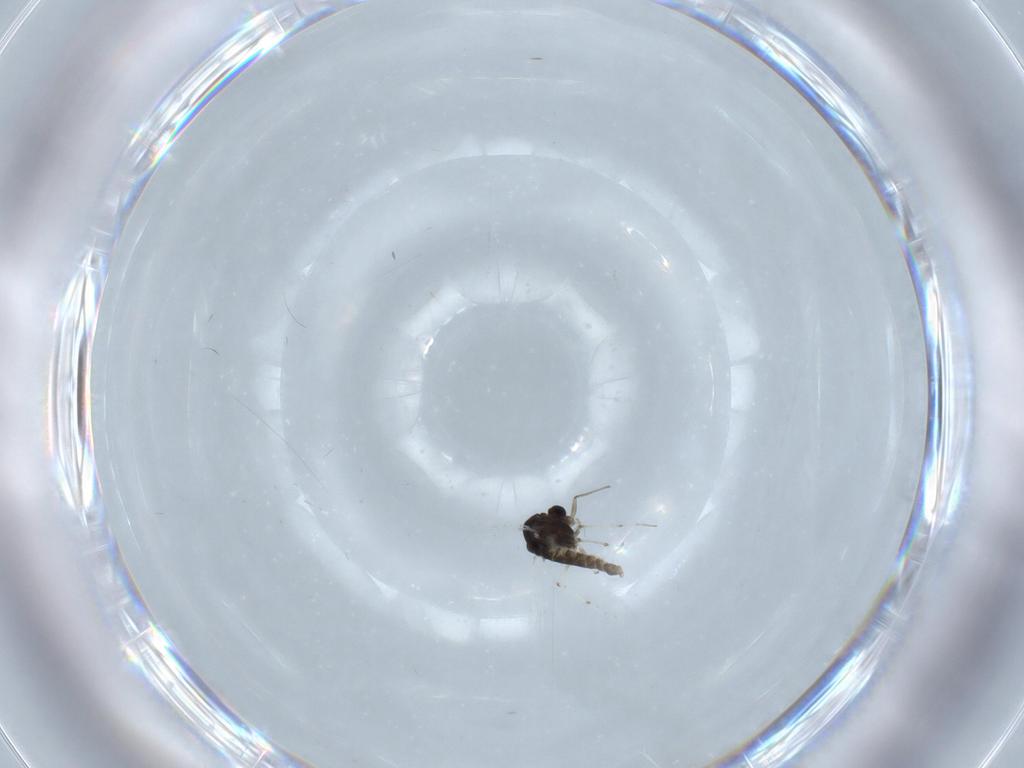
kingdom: Animalia
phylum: Arthropoda
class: Insecta
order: Diptera
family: Chironomidae
